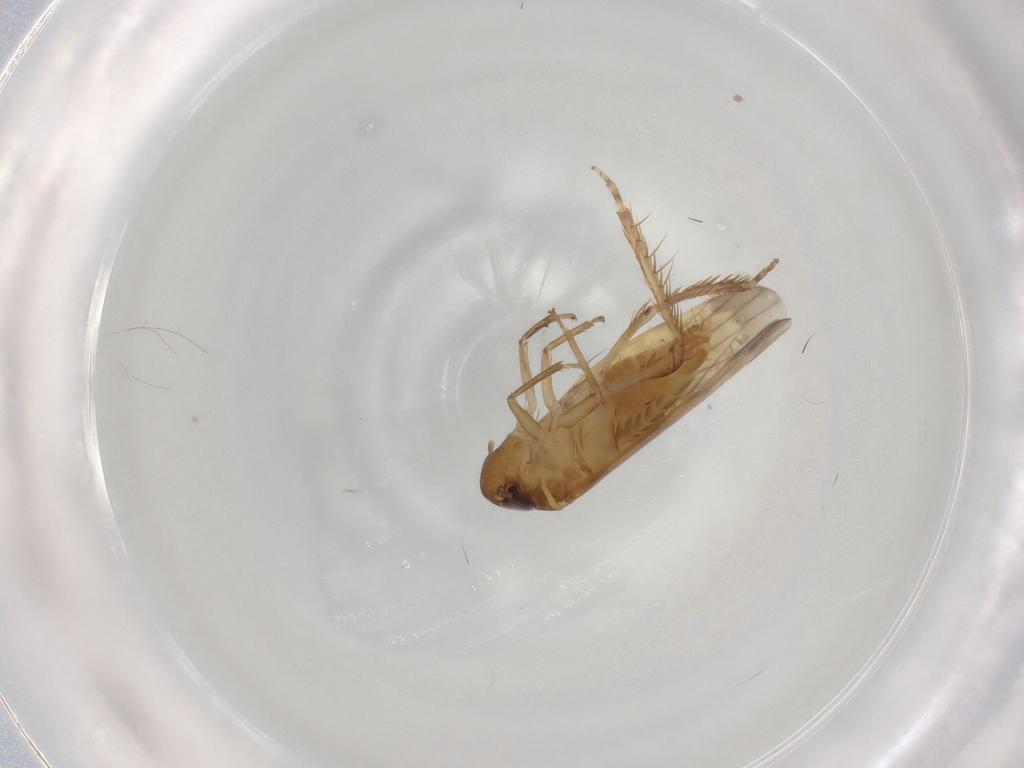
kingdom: Animalia
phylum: Arthropoda
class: Insecta
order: Hemiptera
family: Cicadellidae
